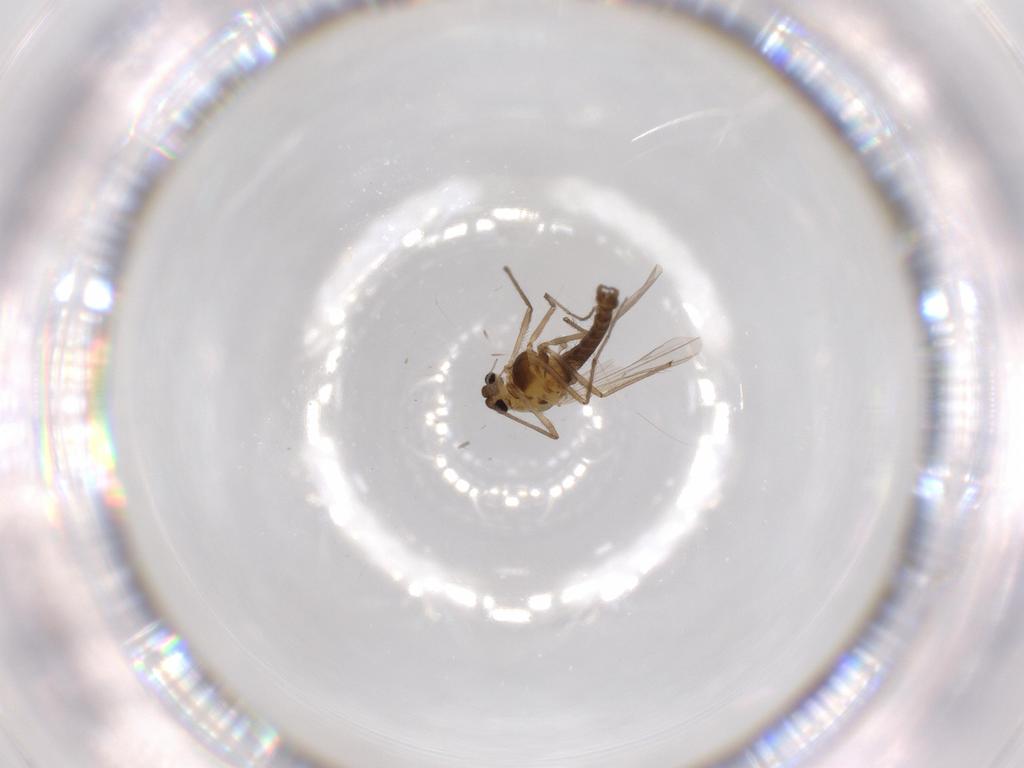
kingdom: Animalia
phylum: Arthropoda
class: Insecta
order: Diptera
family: Chironomidae
